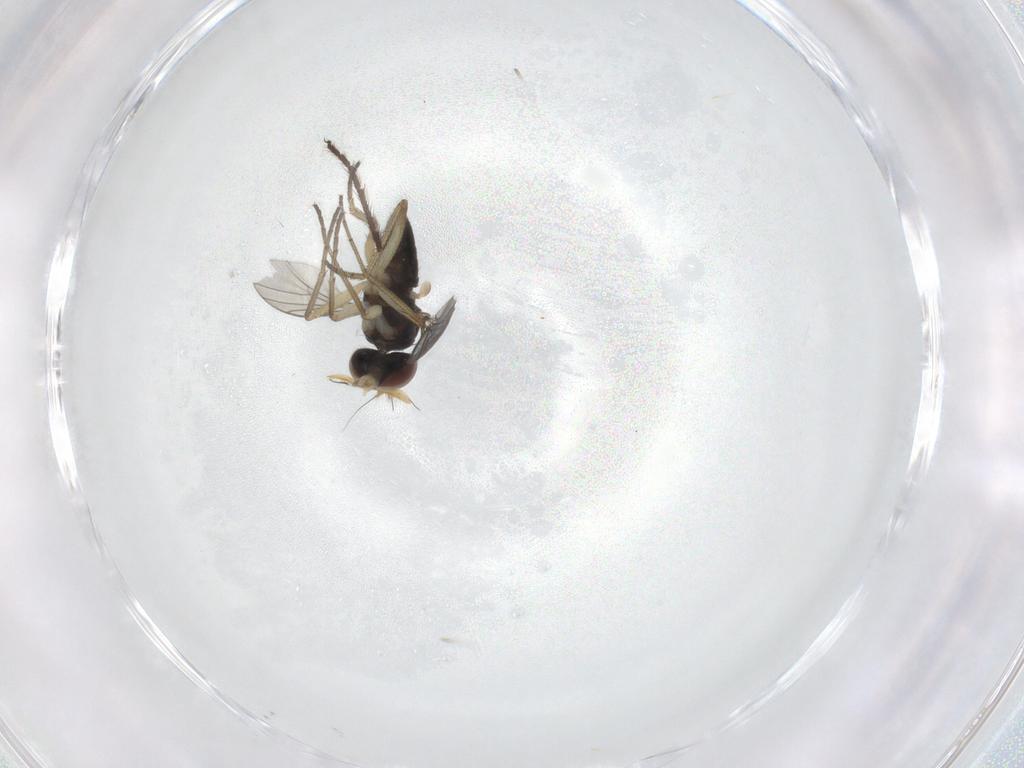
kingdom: Animalia
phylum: Arthropoda
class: Insecta
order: Diptera
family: Dolichopodidae
